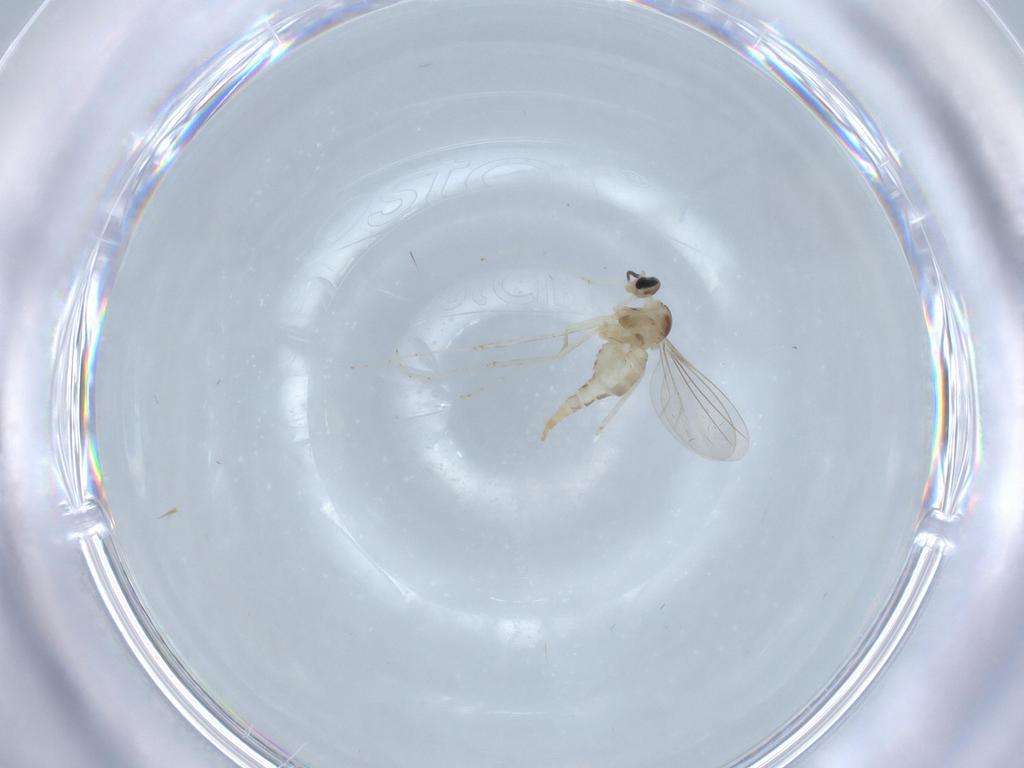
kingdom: Animalia
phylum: Arthropoda
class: Insecta
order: Diptera
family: Cecidomyiidae
